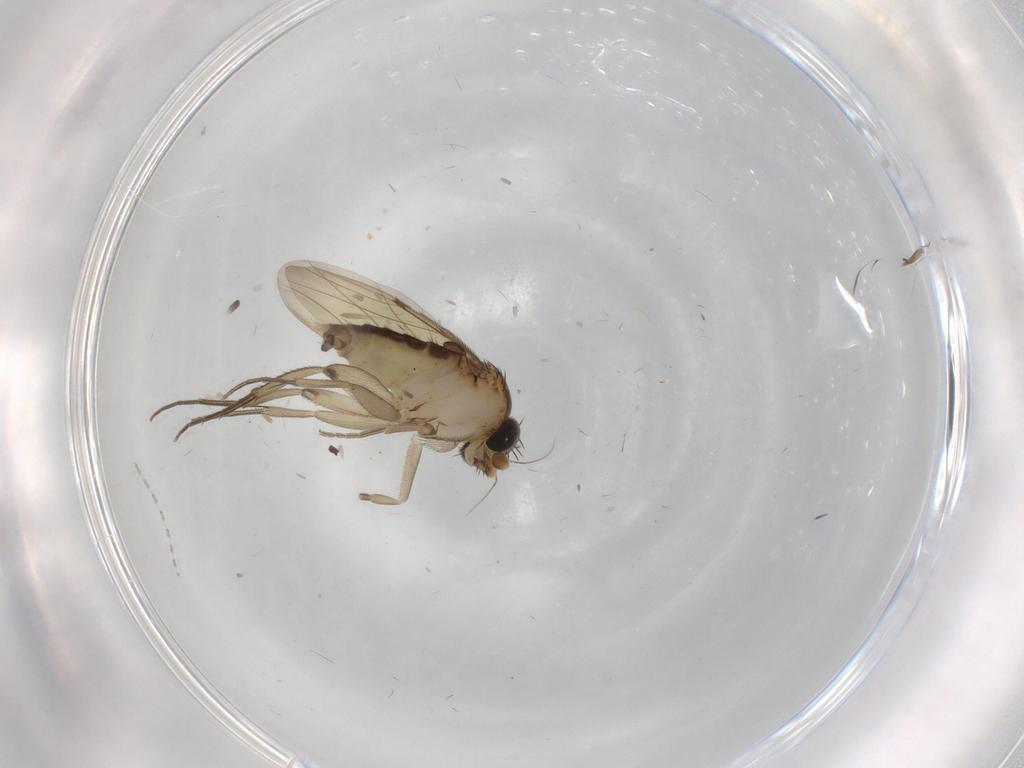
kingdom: Animalia
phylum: Arthropoda
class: Insecta
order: Diptera
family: Phoridae
